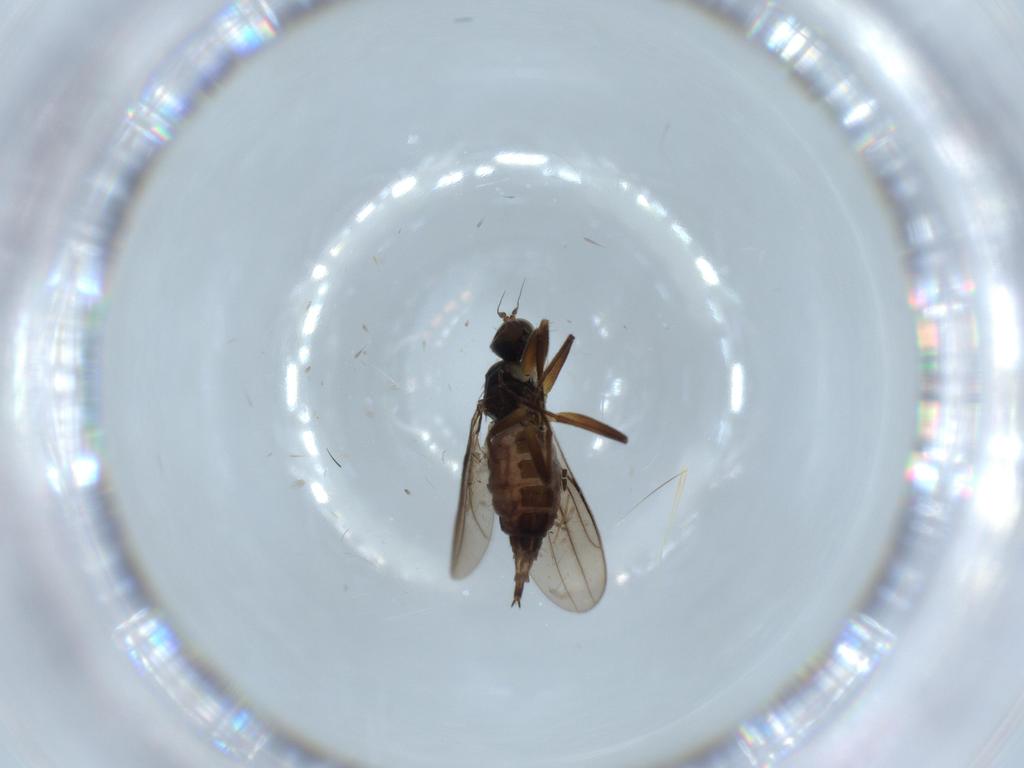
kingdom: Animalia
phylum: Arthropoda
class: Insecta
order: Diptera
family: Hybotidae
